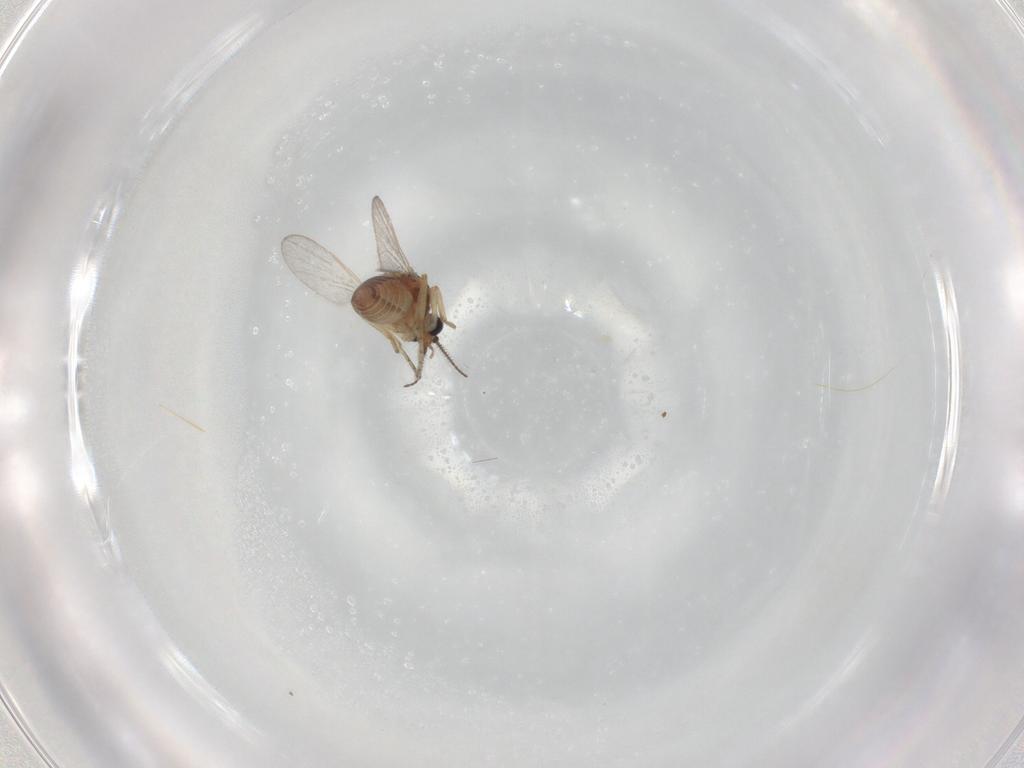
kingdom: Animalia
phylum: Arthropoda
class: Insecta
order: Diptera
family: Ceratopogonidae
